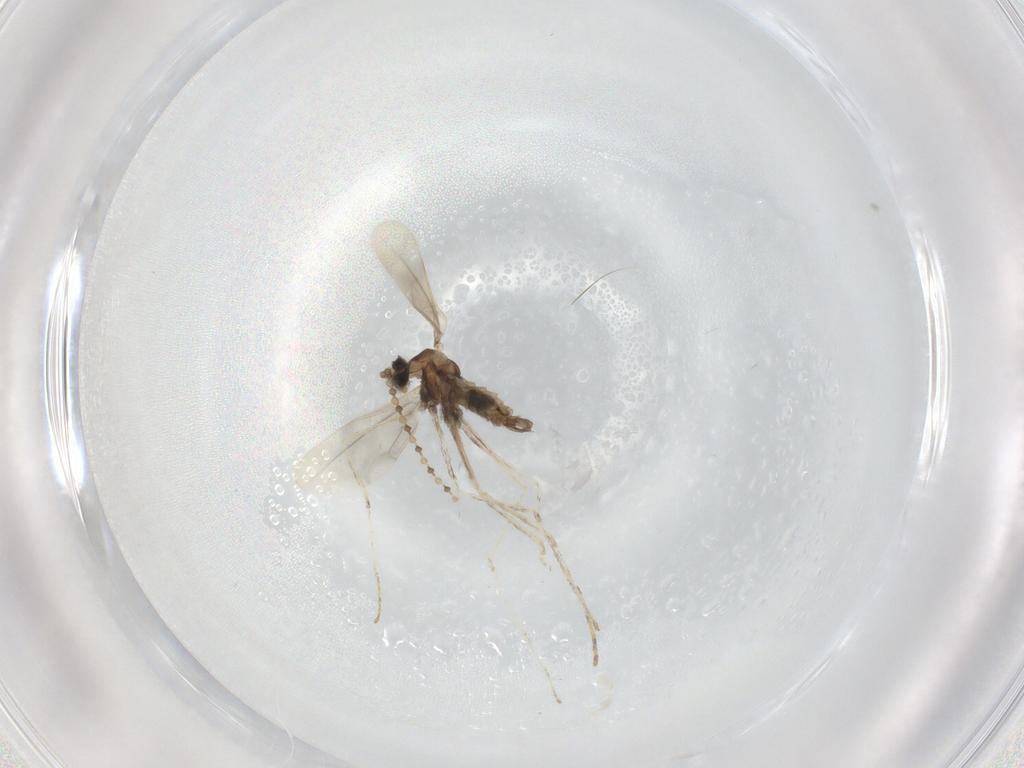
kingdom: Animalia
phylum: Arthropoda
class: Insecta
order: Diptera
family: Cecidomyiidae
